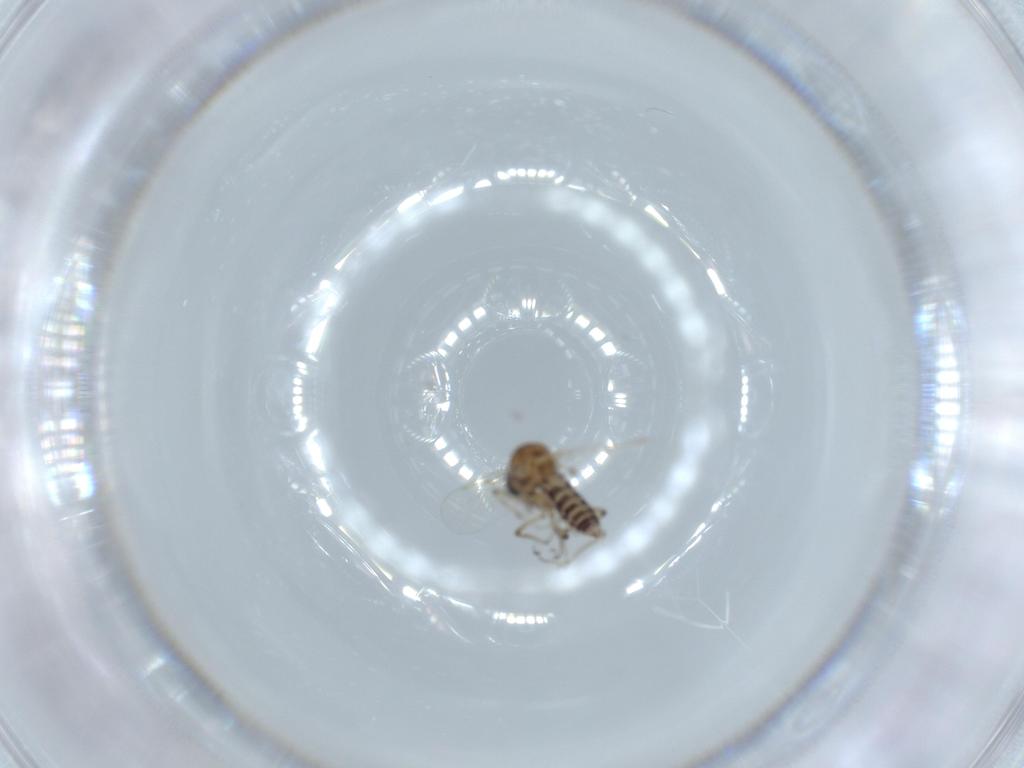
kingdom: Animalia
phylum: Arthropoda
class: Insecta
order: Diptera
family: Ceratopogonidae
